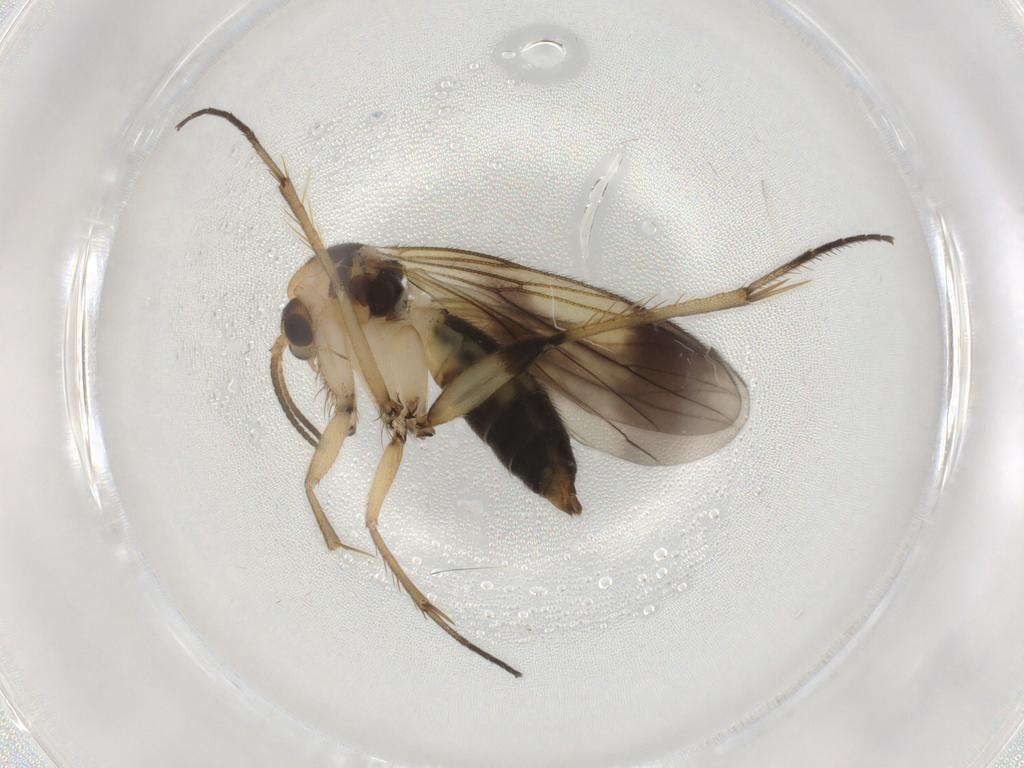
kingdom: Animalia
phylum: Arthropoda
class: Insecta
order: Diptera
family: Mycetophilidae
